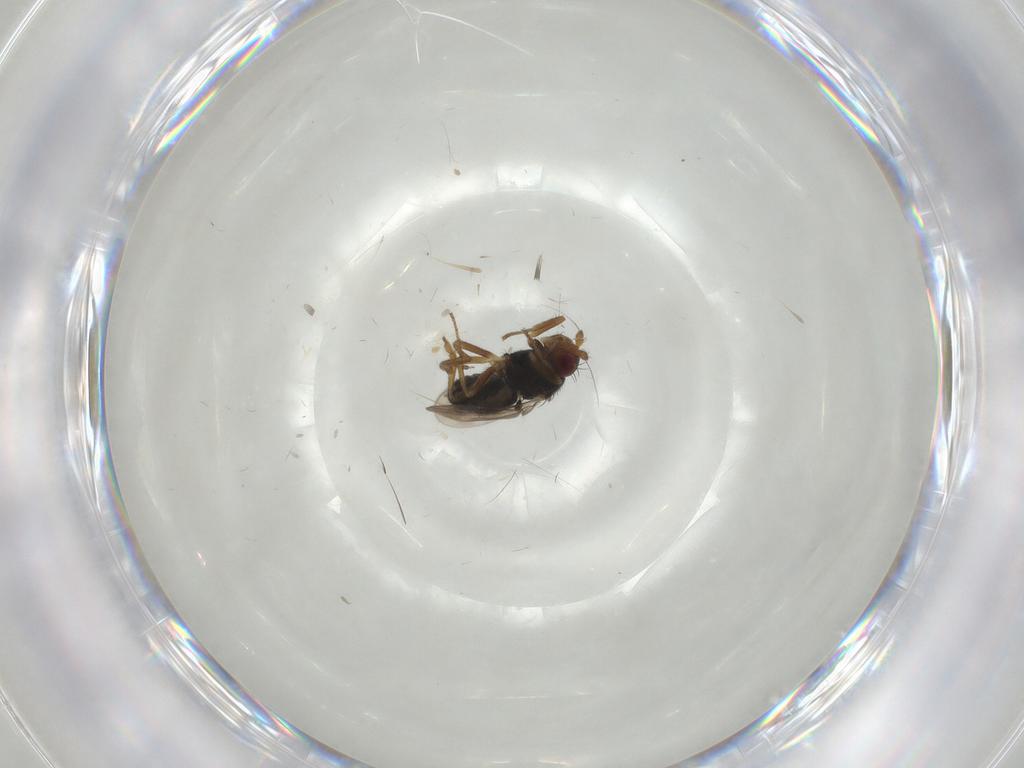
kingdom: Animalia
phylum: Arthropoda
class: Insecta
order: Diptera
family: Sphaeroceridae
